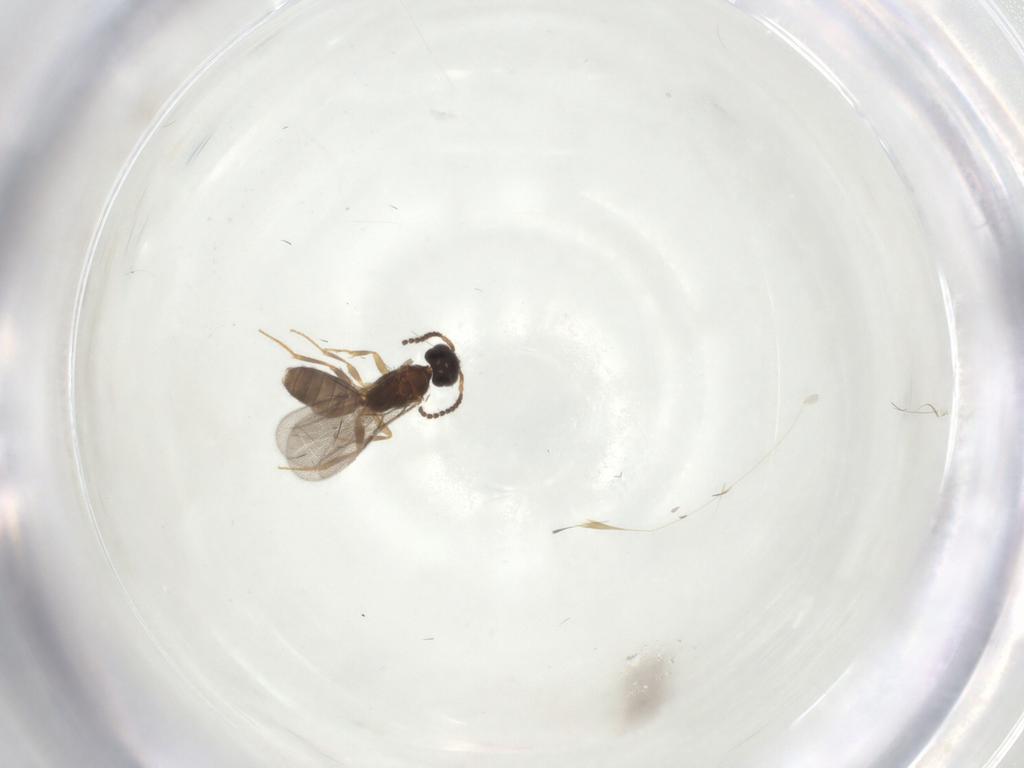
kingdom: Animalia
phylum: Arthropoda
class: Insecta
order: Hymenoptera
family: Bethylidae
